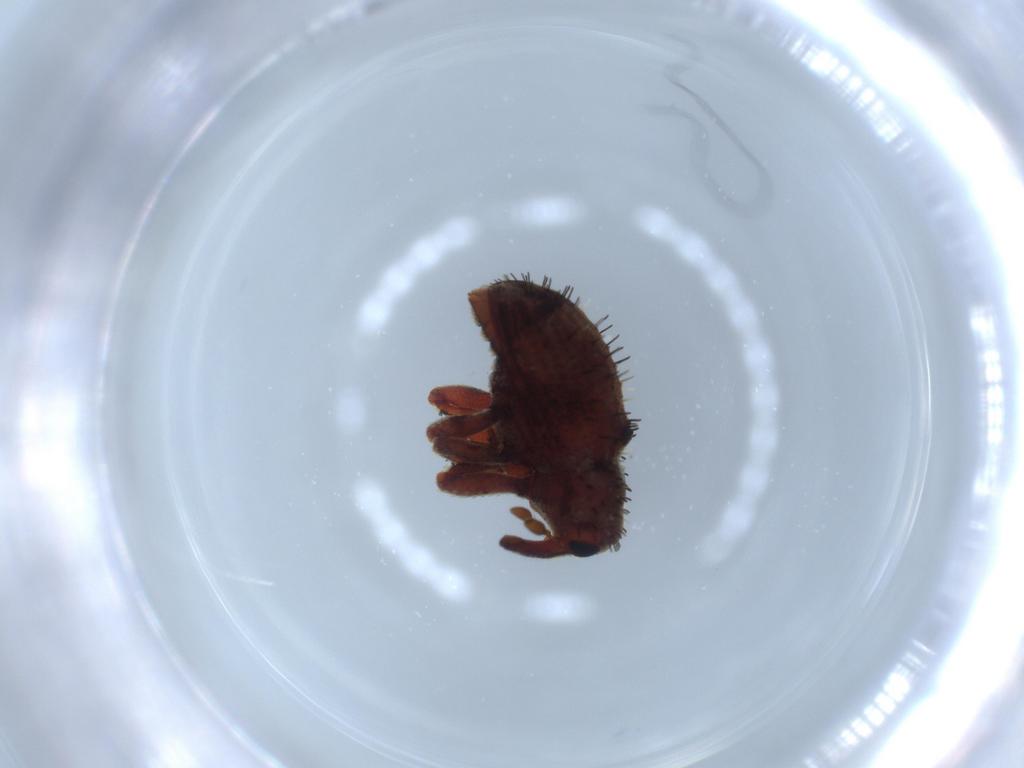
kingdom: Animalia
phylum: Arthropoda
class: Insecta
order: Coleoptera
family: Curculionidae
